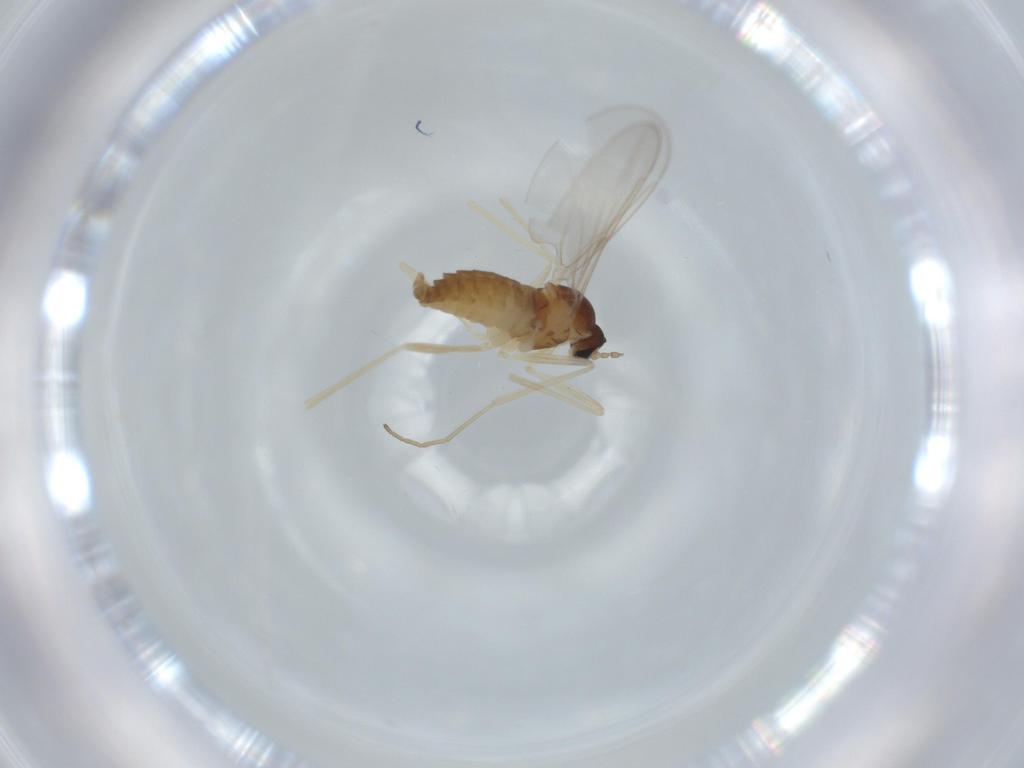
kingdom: Animalia
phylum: Arthropoda
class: Insecta
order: Diptera
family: Cecidomyiidae
